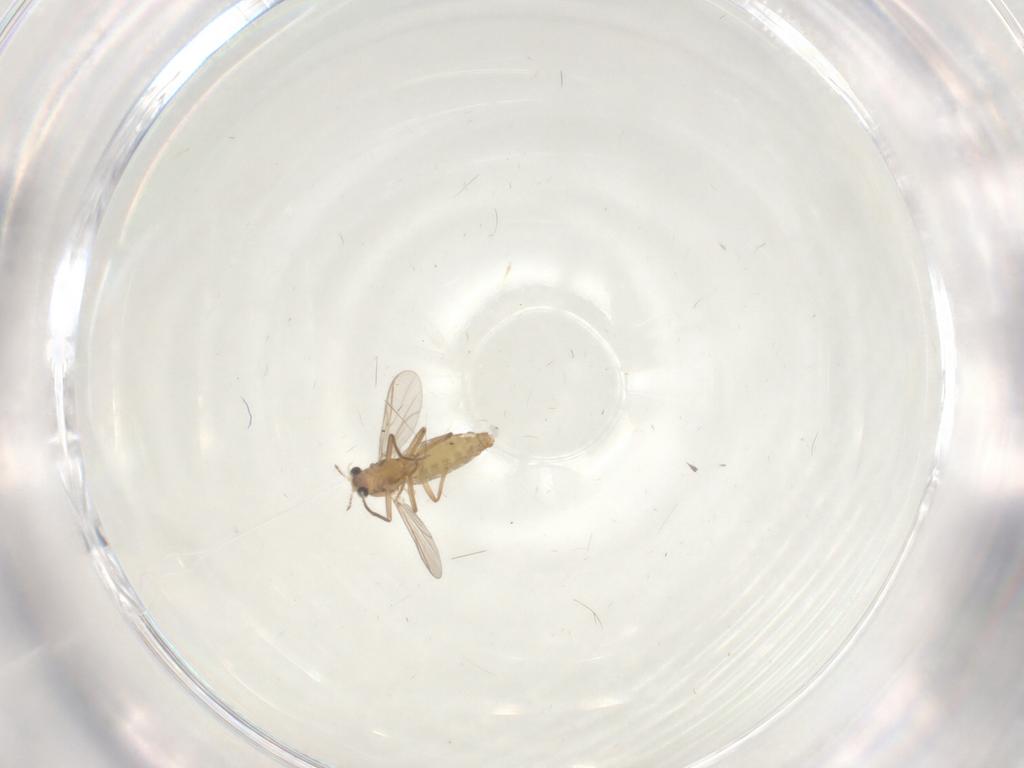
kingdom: Animalia
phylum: Arthropoda
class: Insecta
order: Diptera
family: Chironomidae
